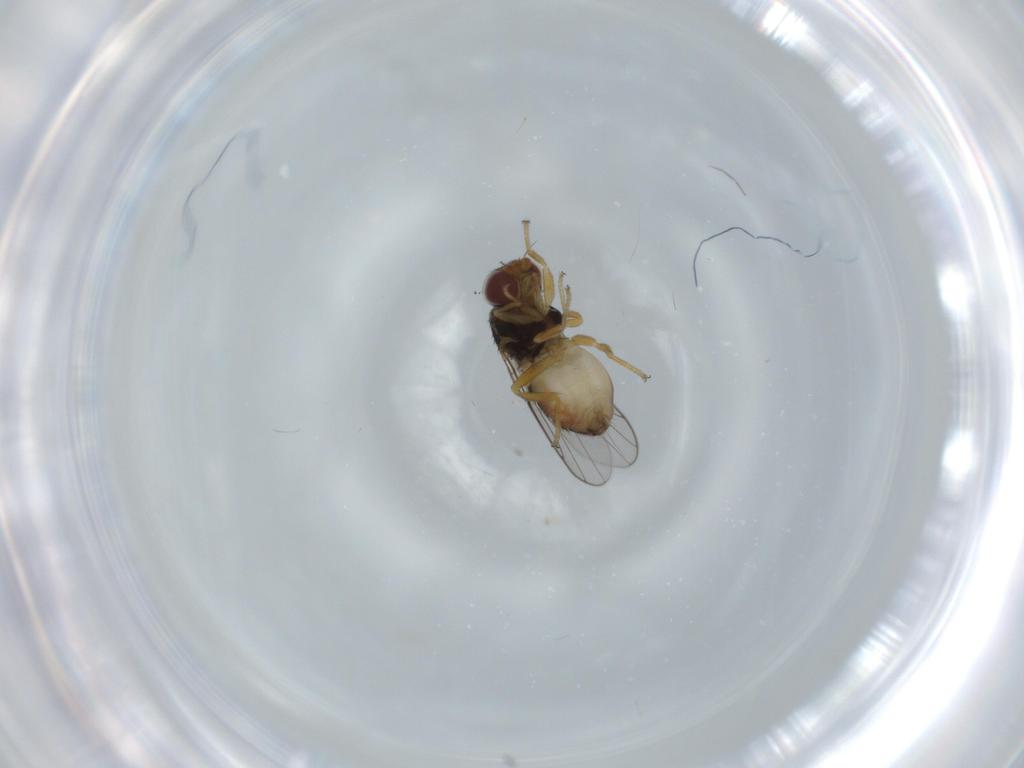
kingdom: Animalia
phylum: Arthropoda
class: Insecta
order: Diptera
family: Chloropidae
